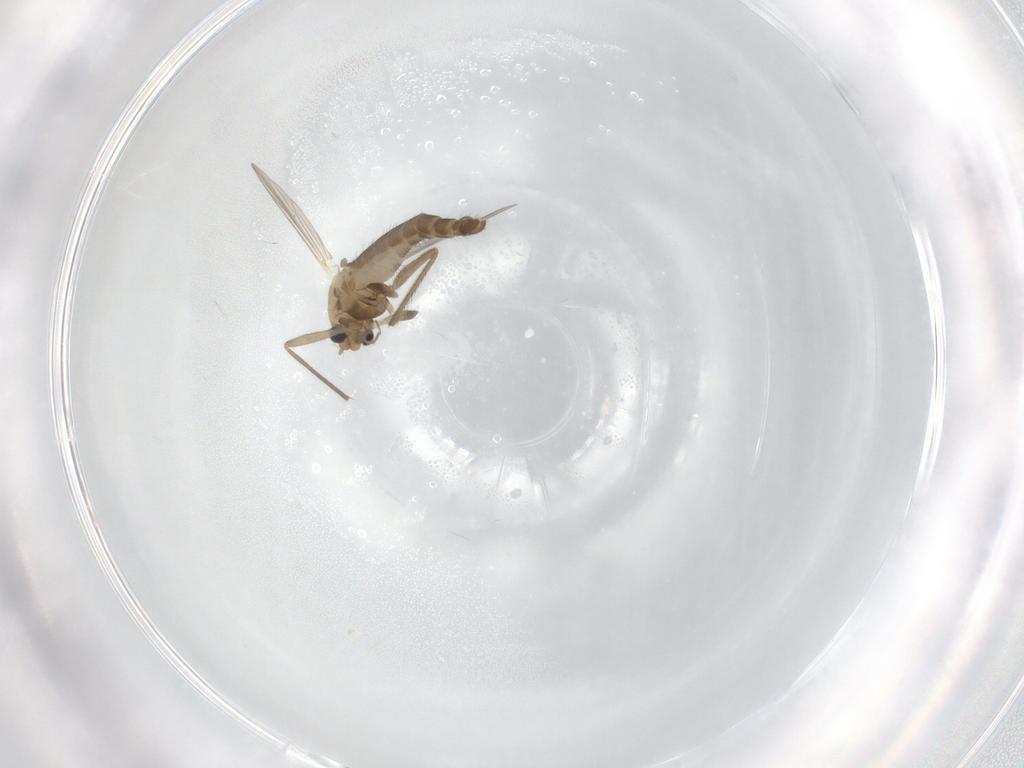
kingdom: Animalia
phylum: Arthropoda
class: Insecta
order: Diptera
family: Chironomidae
